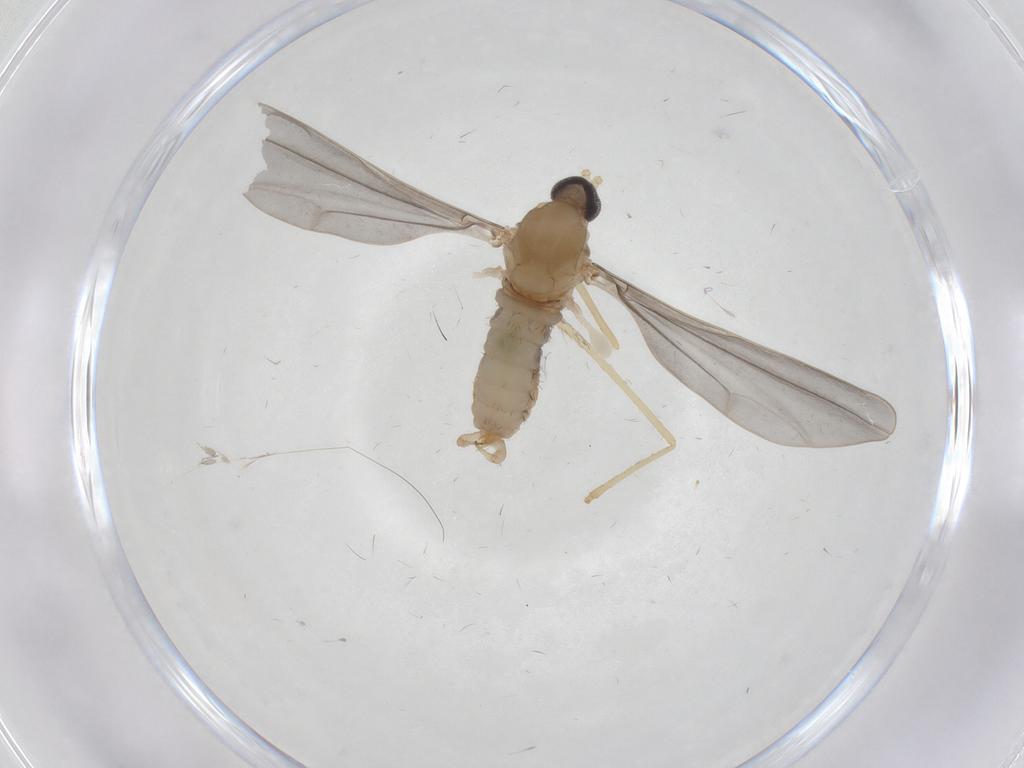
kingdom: Animalia
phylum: Arthropoda
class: Insecta
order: Diptera
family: Cecidomyiidae
